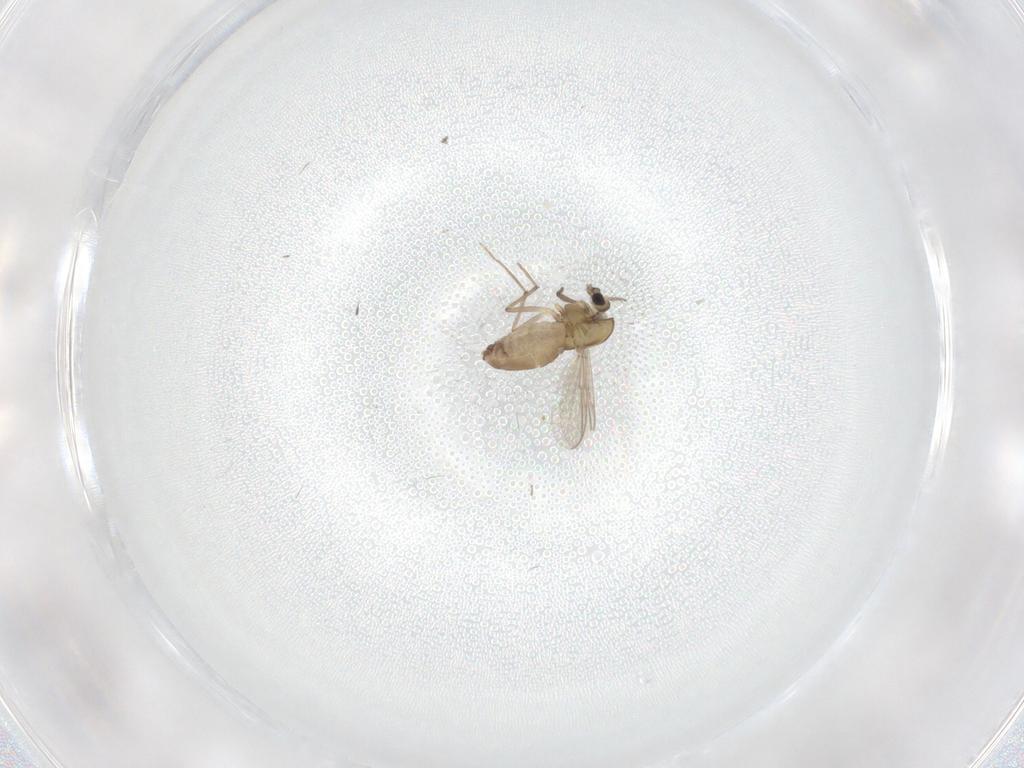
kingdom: Animalia
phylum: Arthropoda
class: Insecta
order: Diptera
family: Chironomidae
